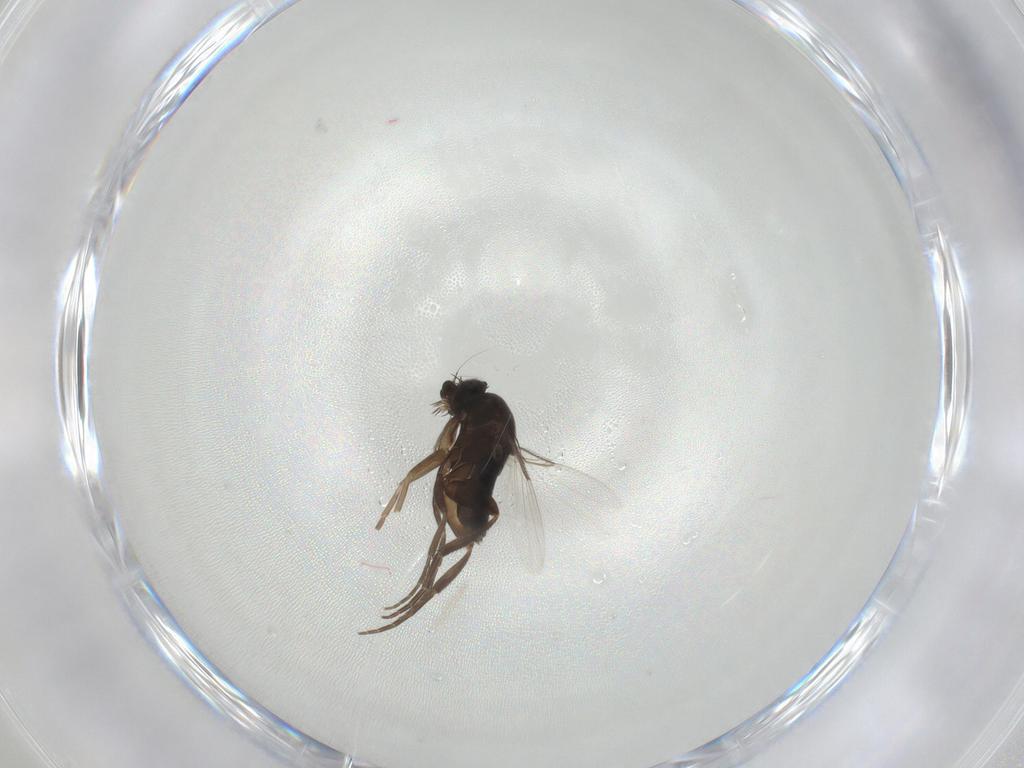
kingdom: Animalia
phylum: Arthropoda
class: Insecta
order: Diptera
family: Phoridae
